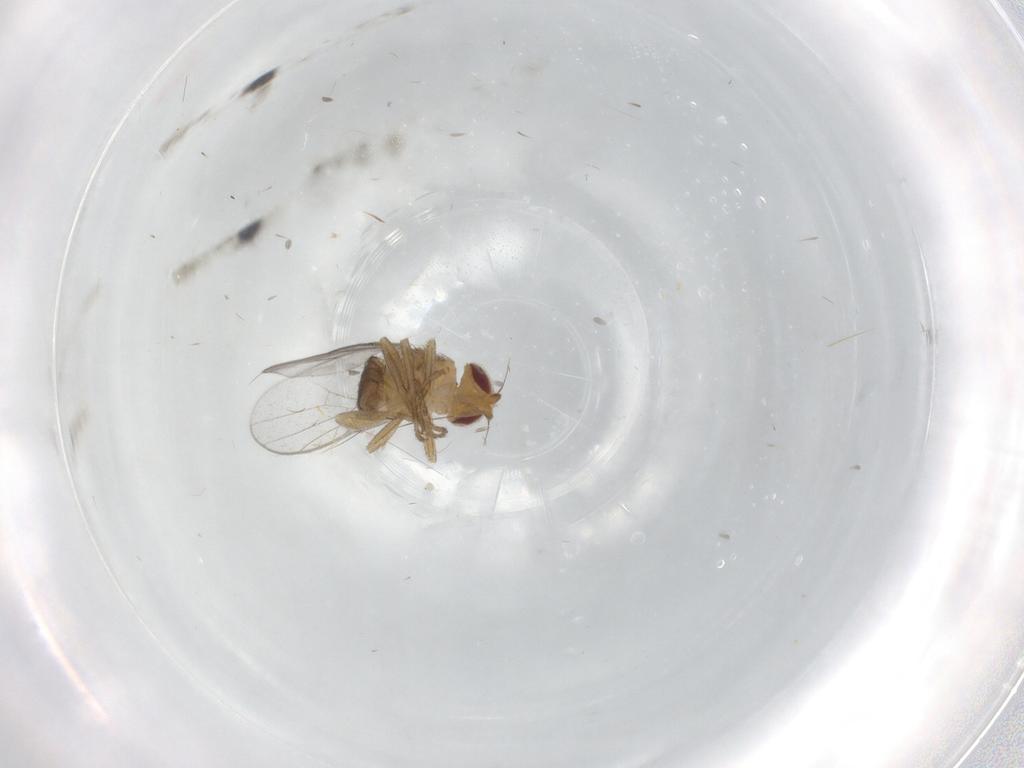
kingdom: Animalia
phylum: Arthropoda
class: Insecta
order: Diptera
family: Chloropidae
